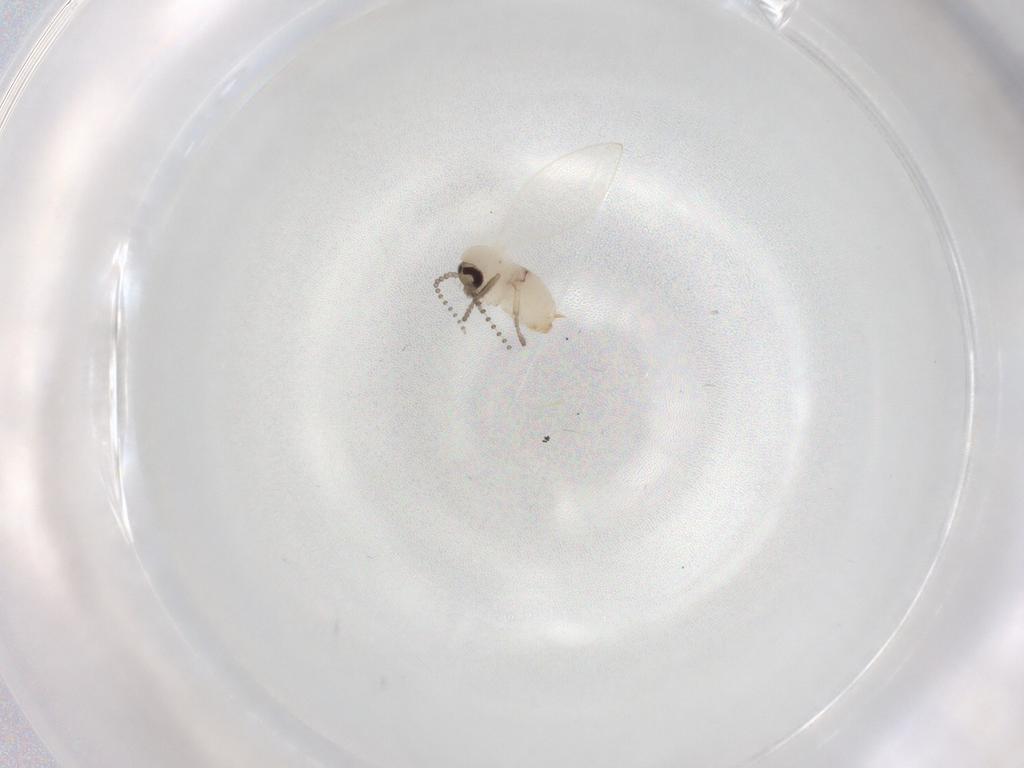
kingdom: Animalia
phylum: Arthropoda
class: Insecta
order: Diptera
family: Psychodidae
